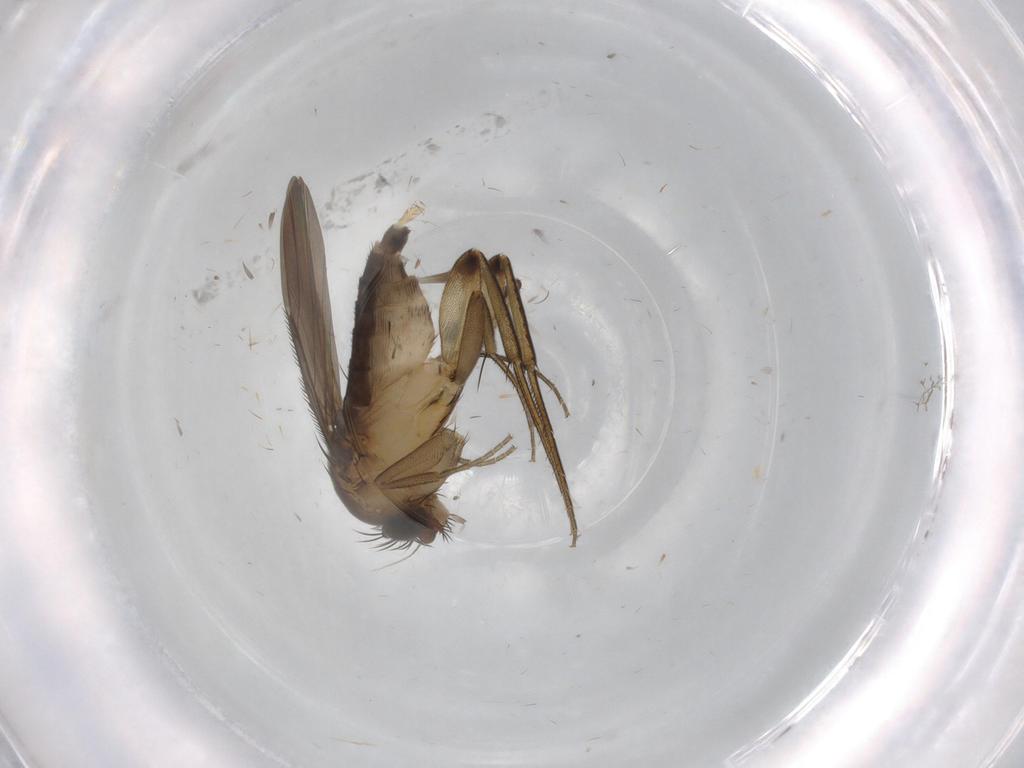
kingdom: Animalia
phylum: Arthropoda
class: Insecta
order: Diptera
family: Phoridae
